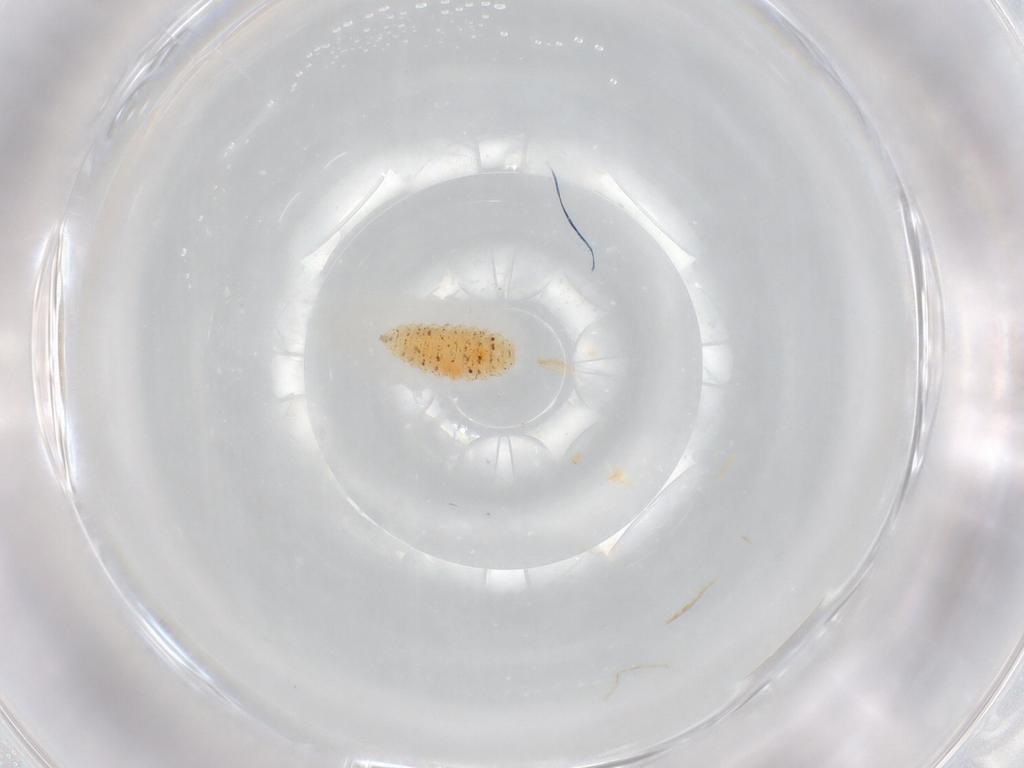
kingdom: Animalia
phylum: Arthropoda
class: Insecta
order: Diptera
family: Cecidomyiidae
